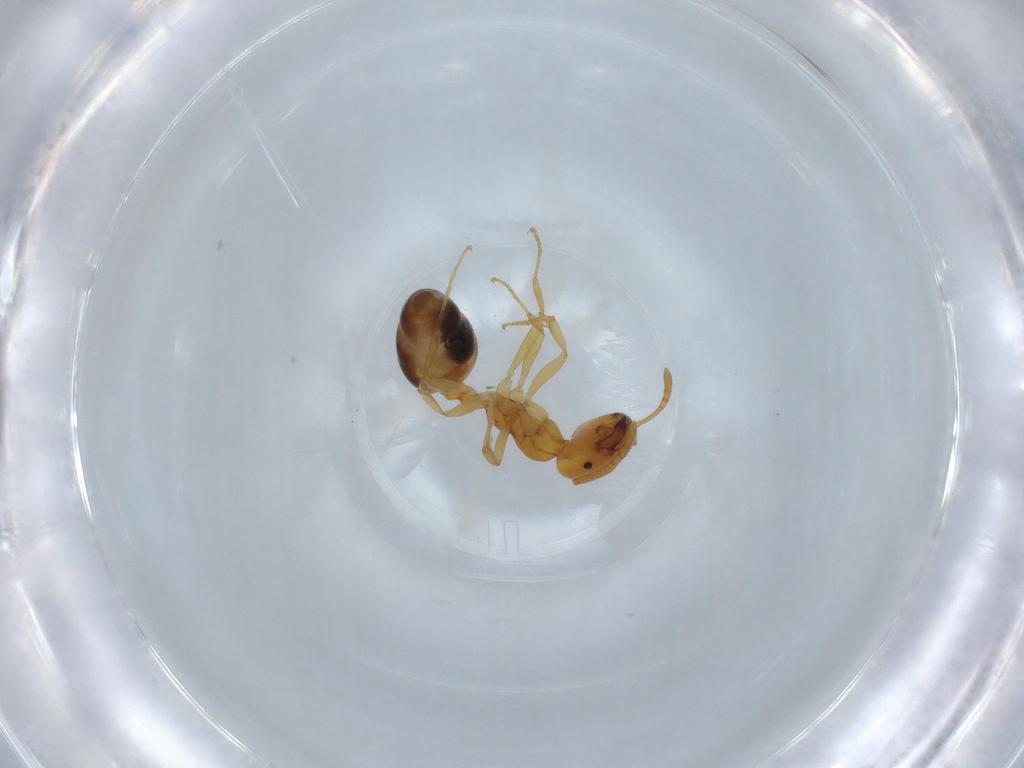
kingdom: Animalia
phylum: Arthropoda
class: Insecta
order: Hymenoptera
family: Formicidae
